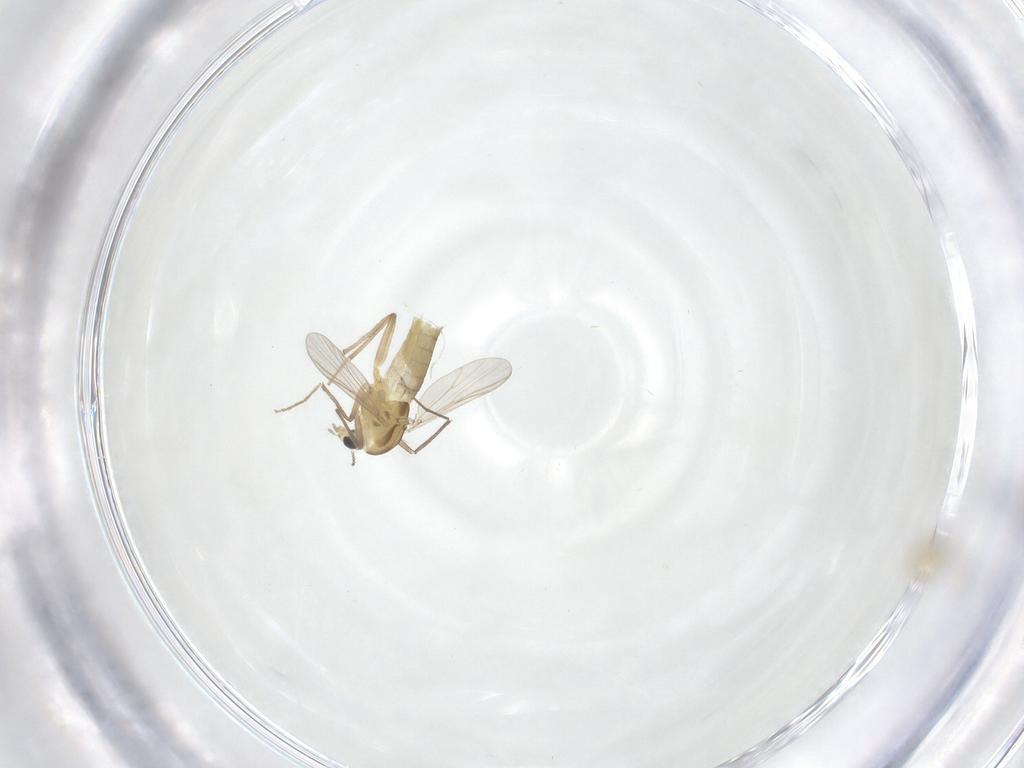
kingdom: Animalia
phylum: Arthropoda
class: Insecta
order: Diptera
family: Chironomidae
